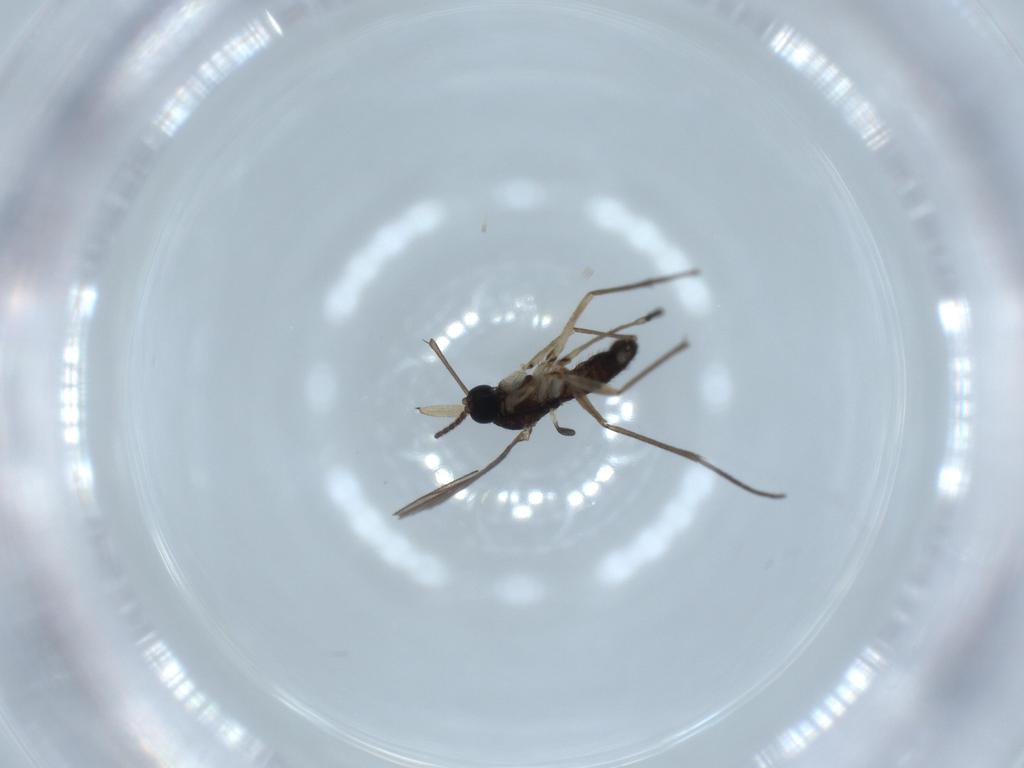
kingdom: Animalia
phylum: Arthropoda
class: Insecta
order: Diptera
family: Sciaridae
